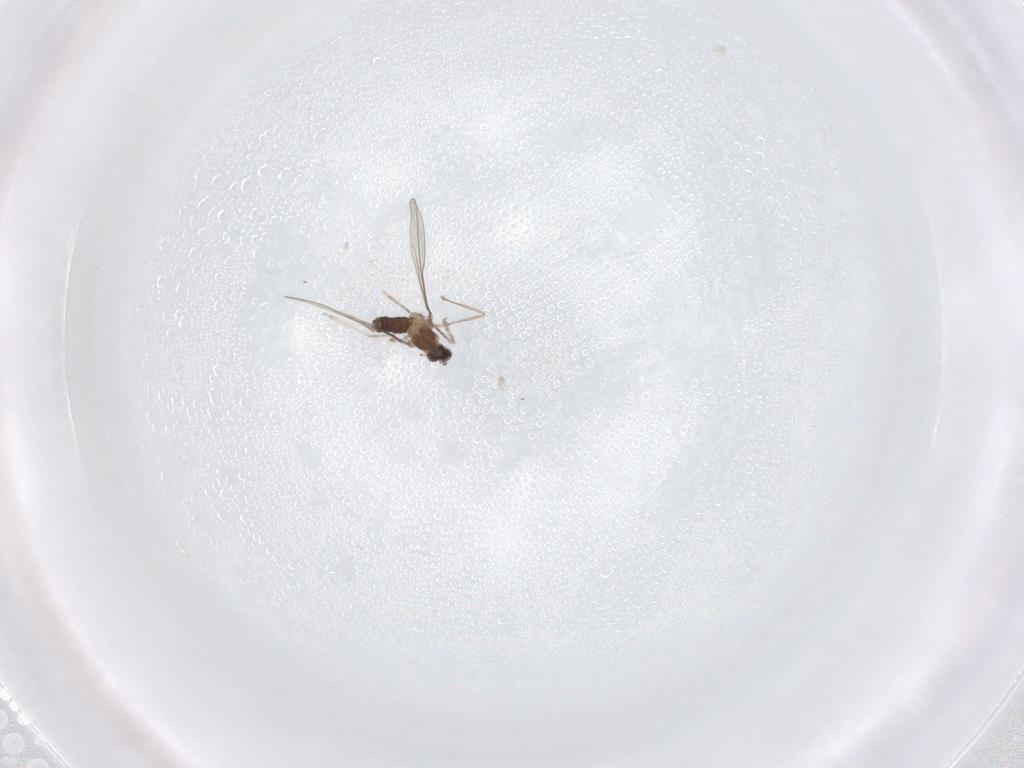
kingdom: Animalia
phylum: Arthropoda
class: Insecta
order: Diptera
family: Cecidomyiidae
